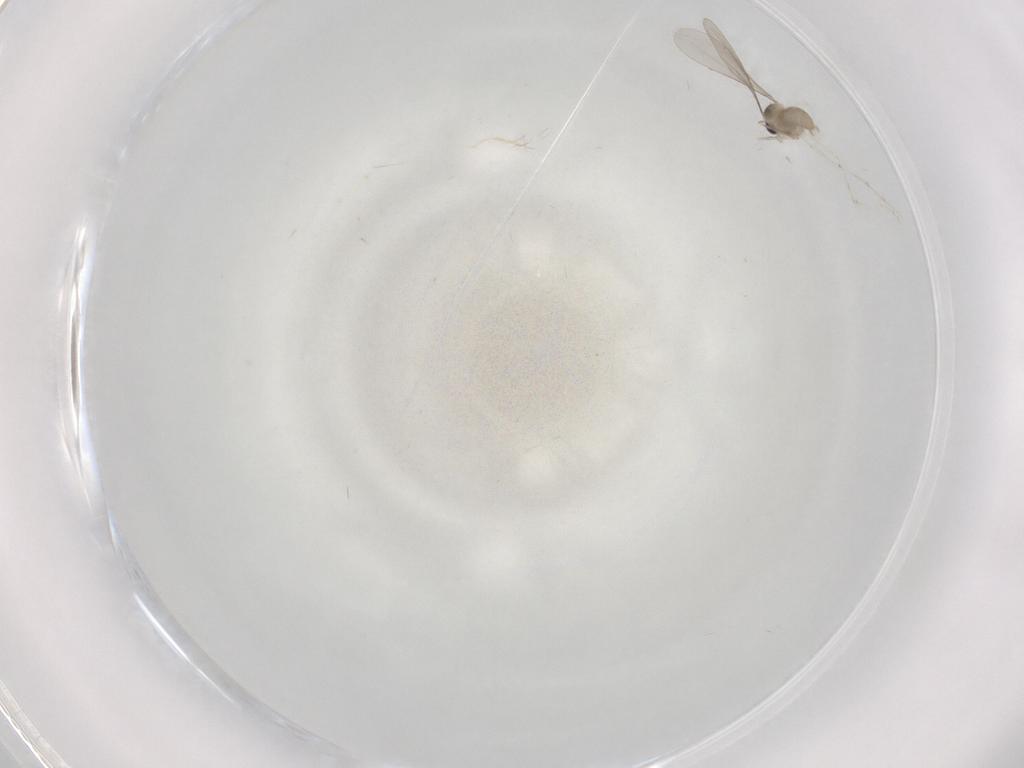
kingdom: Animalia
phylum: Arthropoda
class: Insecta
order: Diptera
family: Cecidomyiidae
